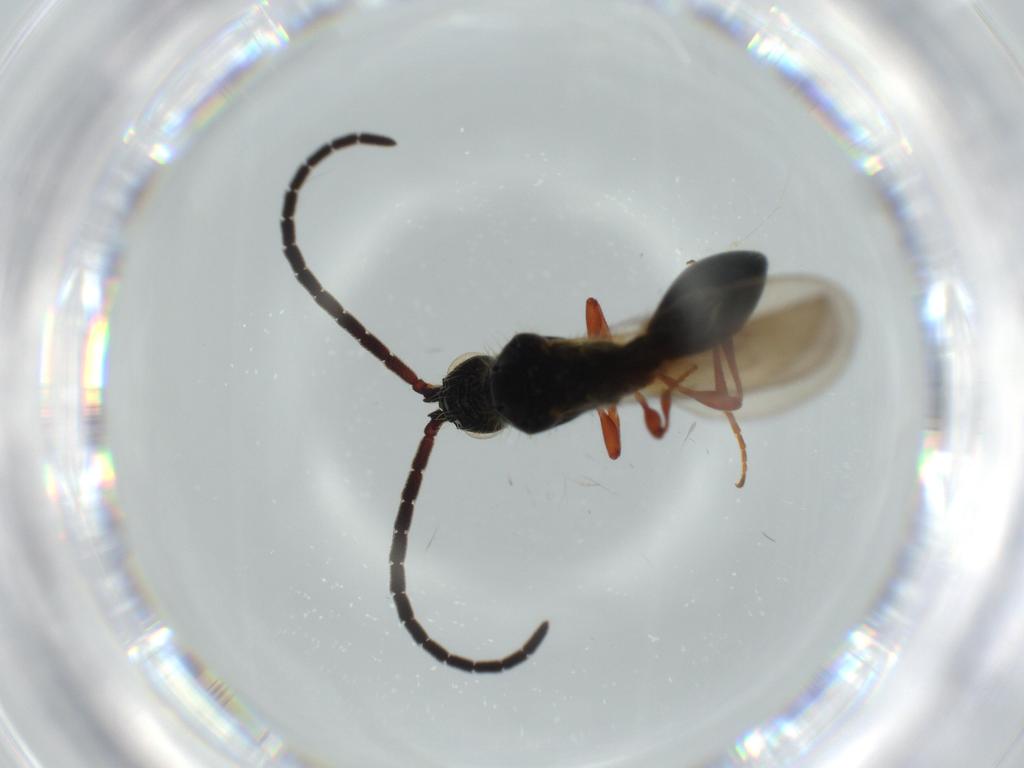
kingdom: Animalia
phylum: Arthropoda
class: Insecta
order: Hymenoptera
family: Diapriidae
